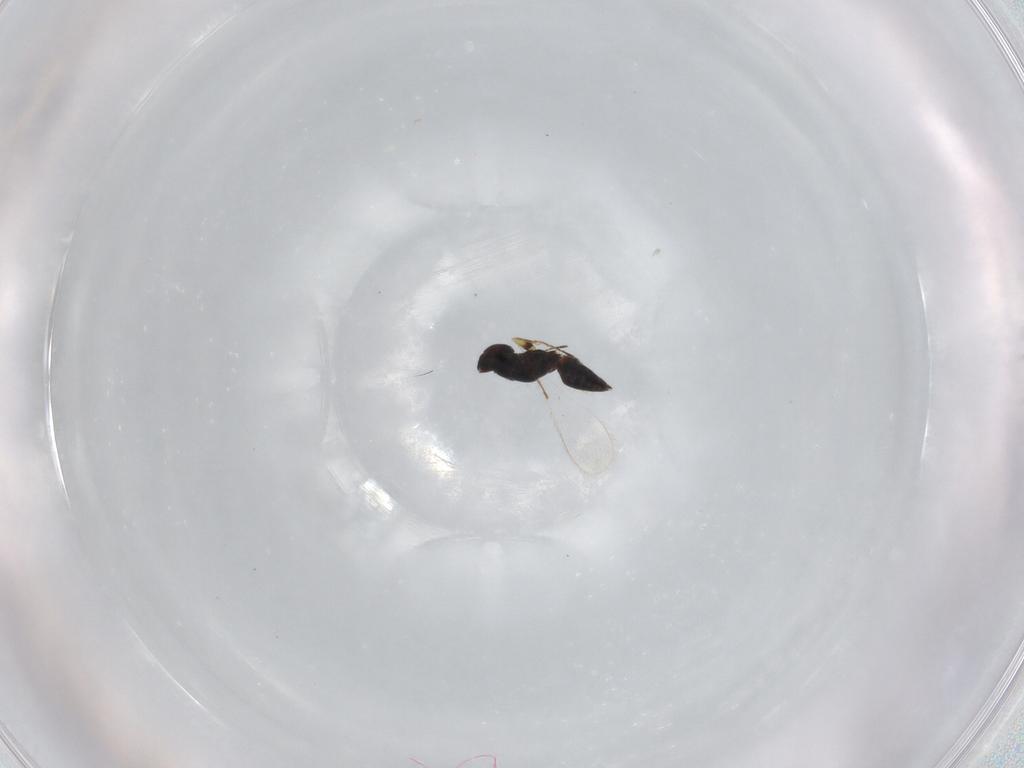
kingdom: Animalia
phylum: Arthropoda
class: Insecta
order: Hymenoptera
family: Mymaridae
